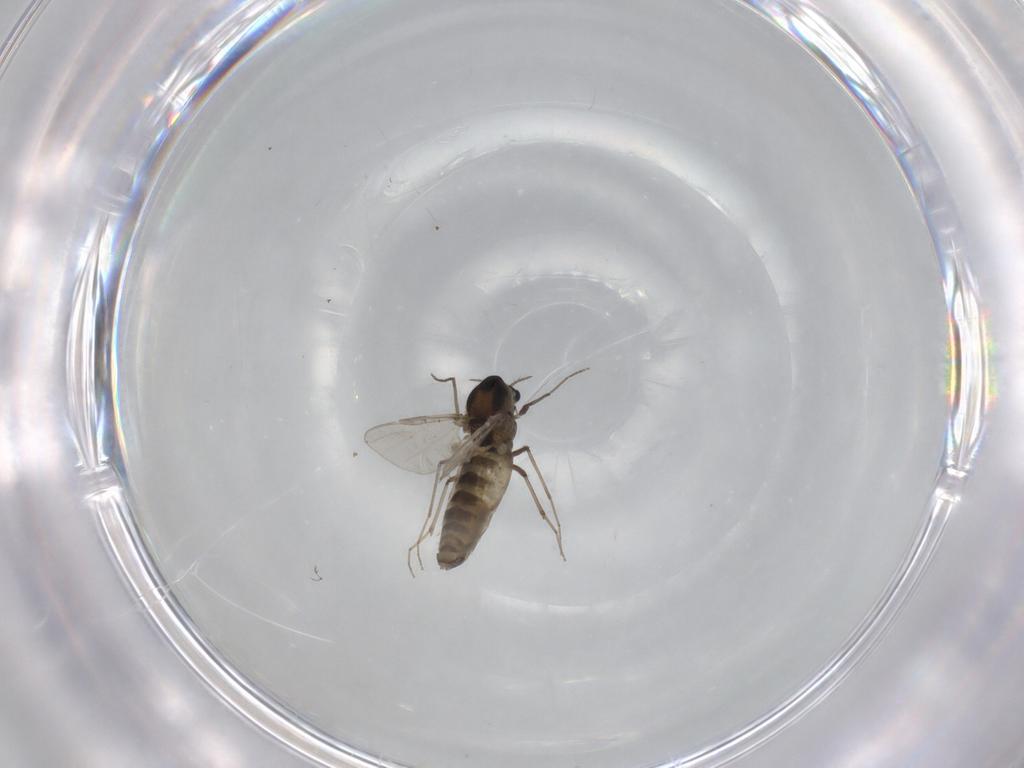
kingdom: Animalia
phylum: Arthropoda
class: Insecta
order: Diptera
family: Chironomidae
